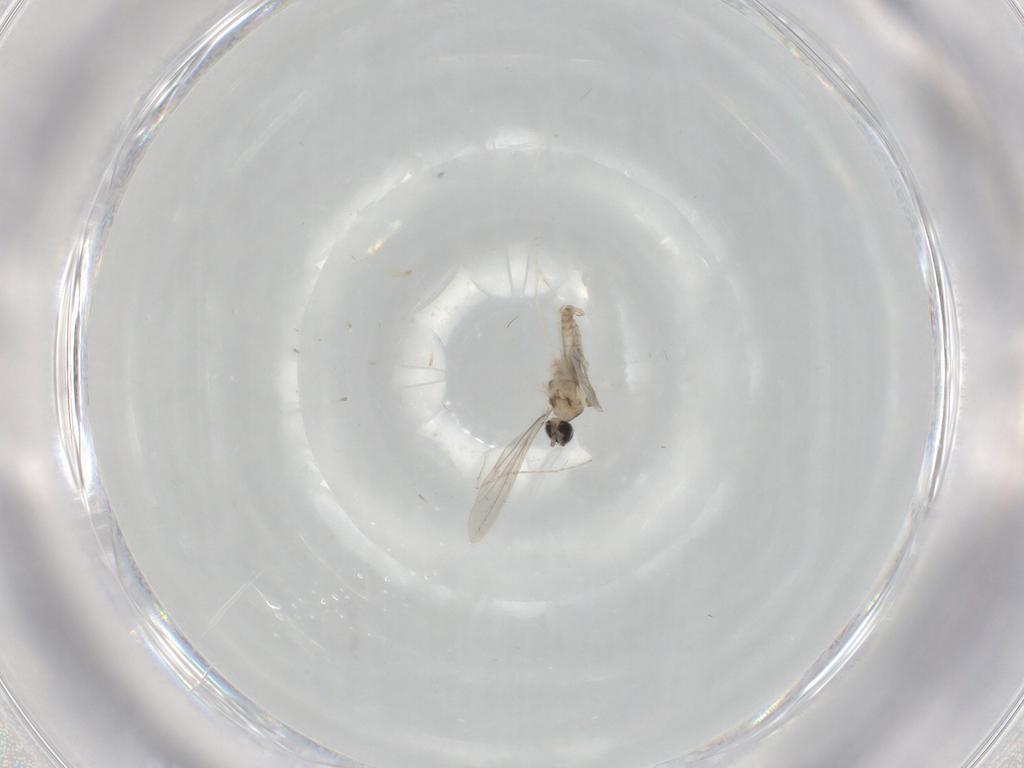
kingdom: Animalia
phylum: Arthropoda
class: Insecta
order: Diptera
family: Cecidomyiidae
